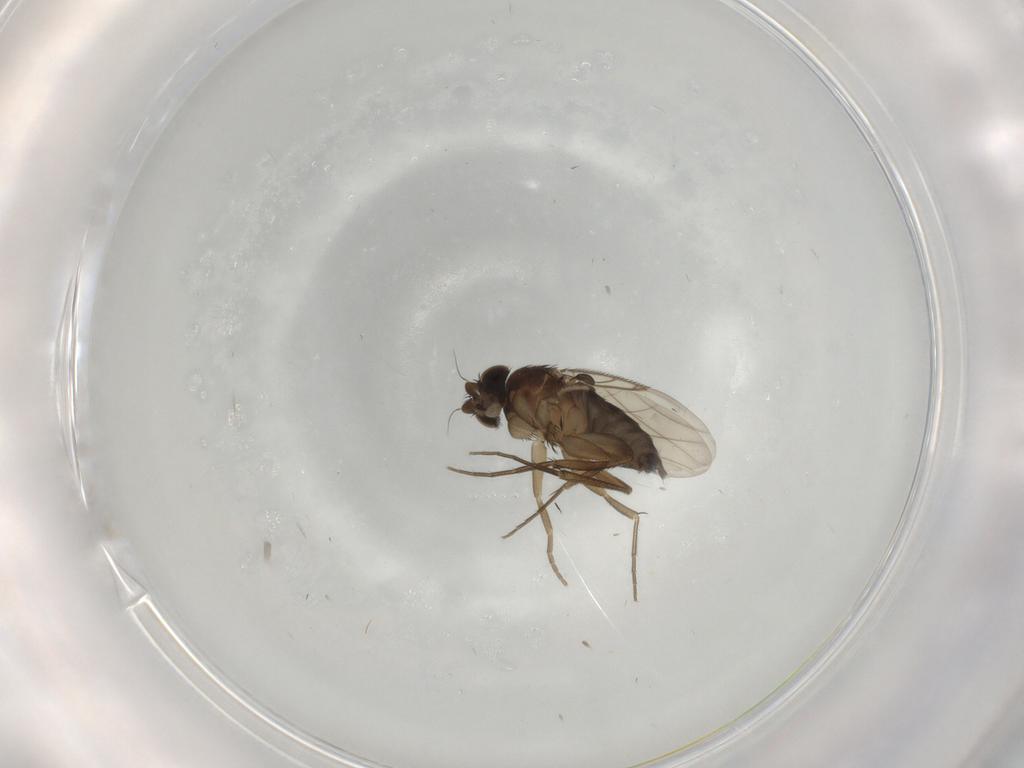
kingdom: Animalia
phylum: Arthropoda
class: Insecta
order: Diptera
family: Phoridae
